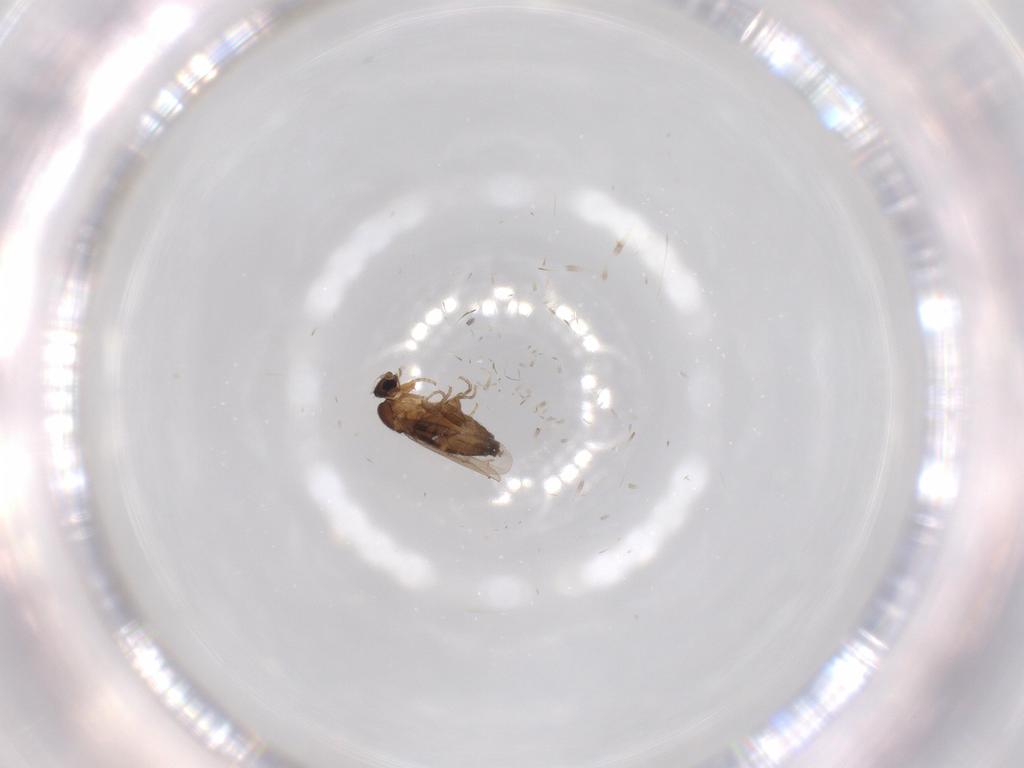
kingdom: Animalia
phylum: Arthropoda
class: Insecta
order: Diptera
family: Phoridae
